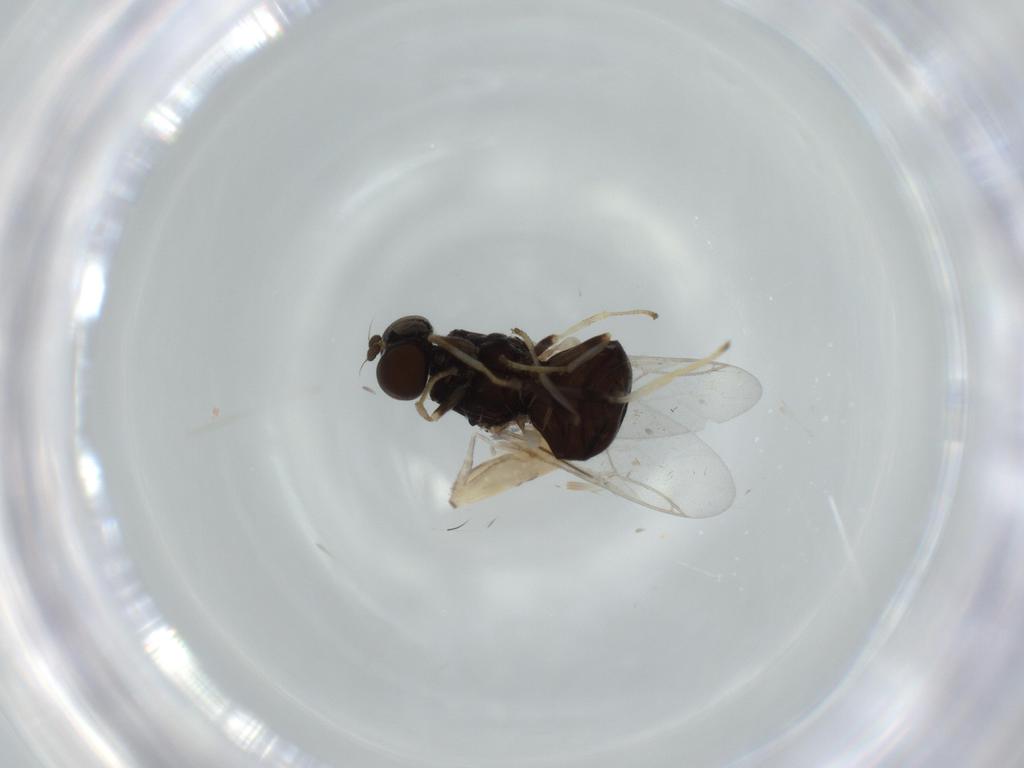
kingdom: Animalia
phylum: Arthropoda
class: Insecta
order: Diptera
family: Stratiomyidae
